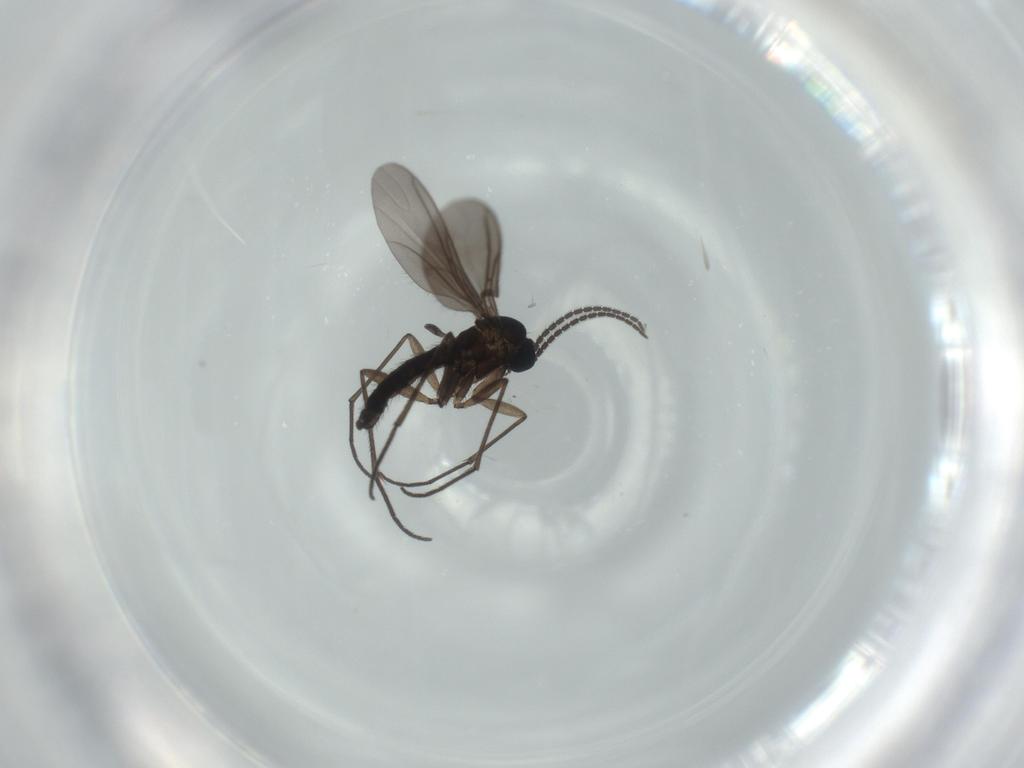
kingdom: Animalia
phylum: Arthropoda
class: Insecta
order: Diptera
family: Sciaridae
